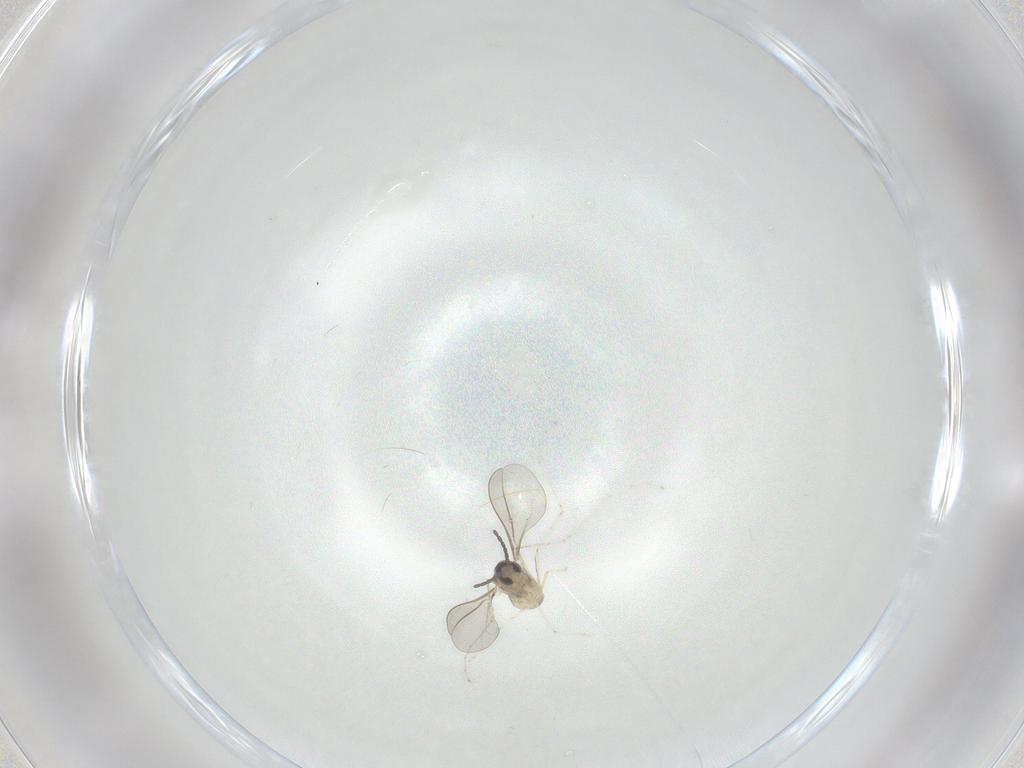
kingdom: Animalia
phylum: Arthropoda
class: Insecta
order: Diptera
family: Cecidomyiidae
